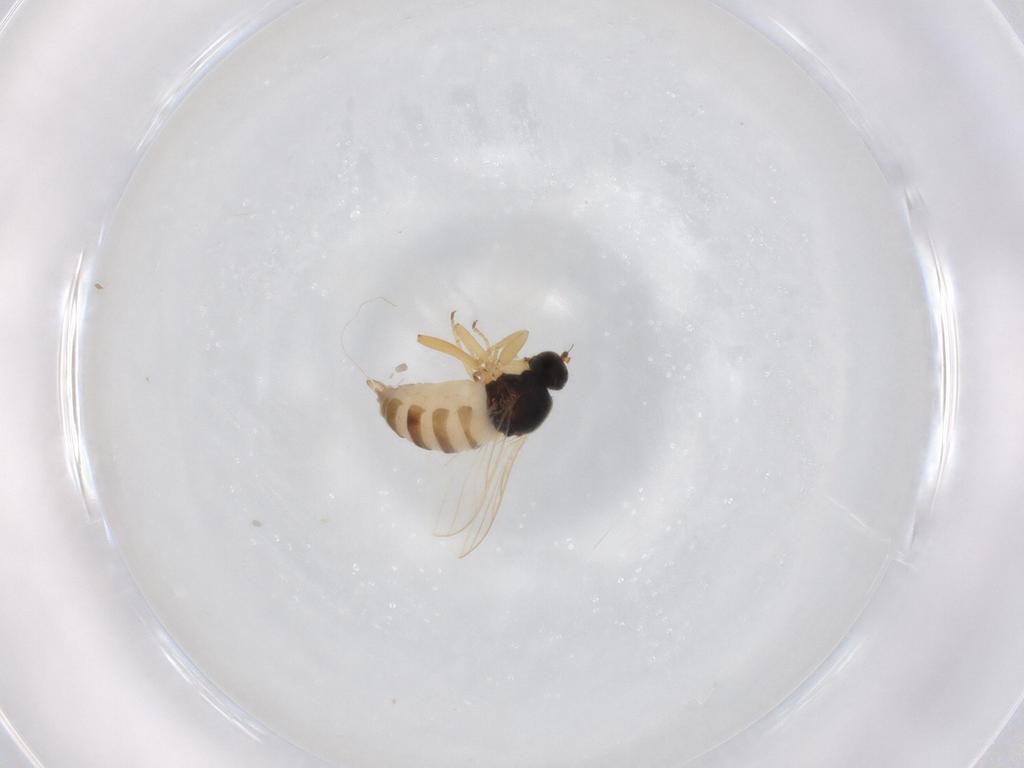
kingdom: Animalia
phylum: Arthropoda
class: Insecta
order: Diptera
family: Hybotidae
